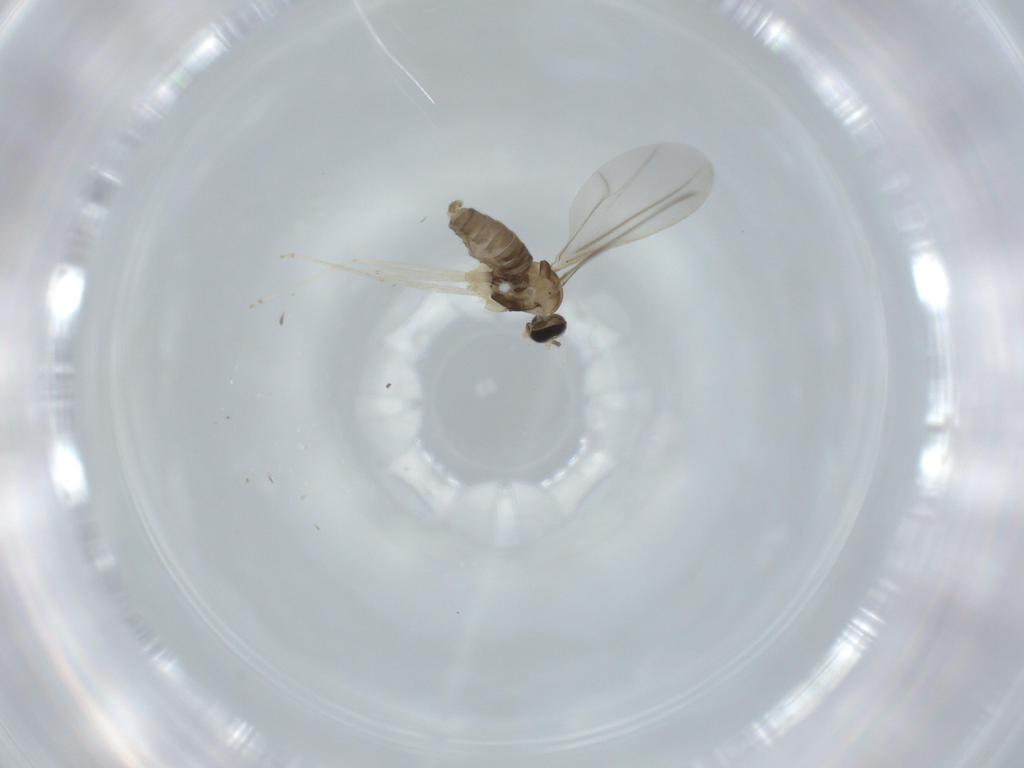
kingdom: Animalia
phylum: Arthropoda
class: Insecta
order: Diptera
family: Cecidomyiidae
